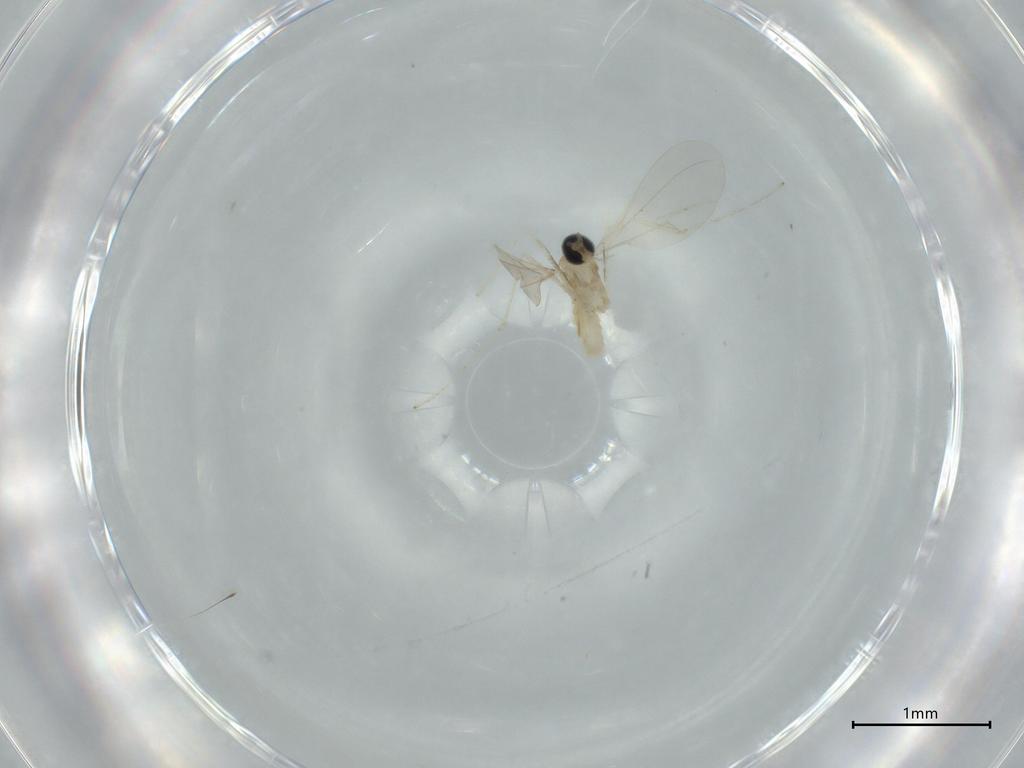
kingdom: Animalia
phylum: Arthropoda
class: Insecta
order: Diptera
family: Cecidomyiidae
